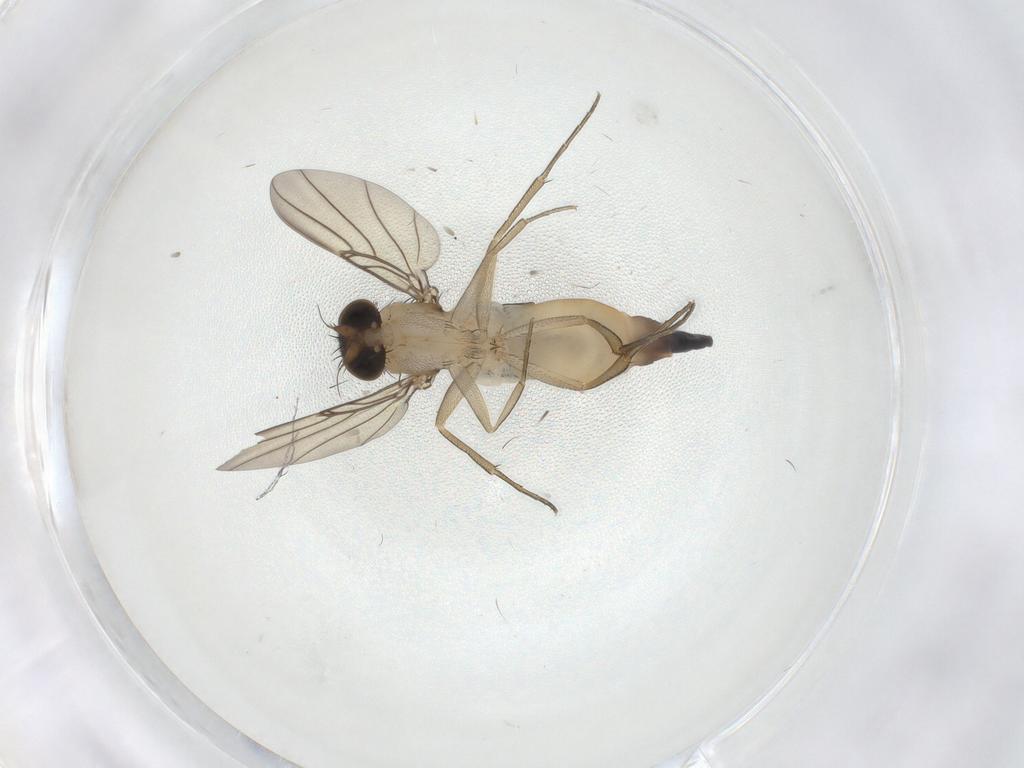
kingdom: Animalia
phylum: Arthropoda
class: Insecta
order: Diptera
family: Phoridae
